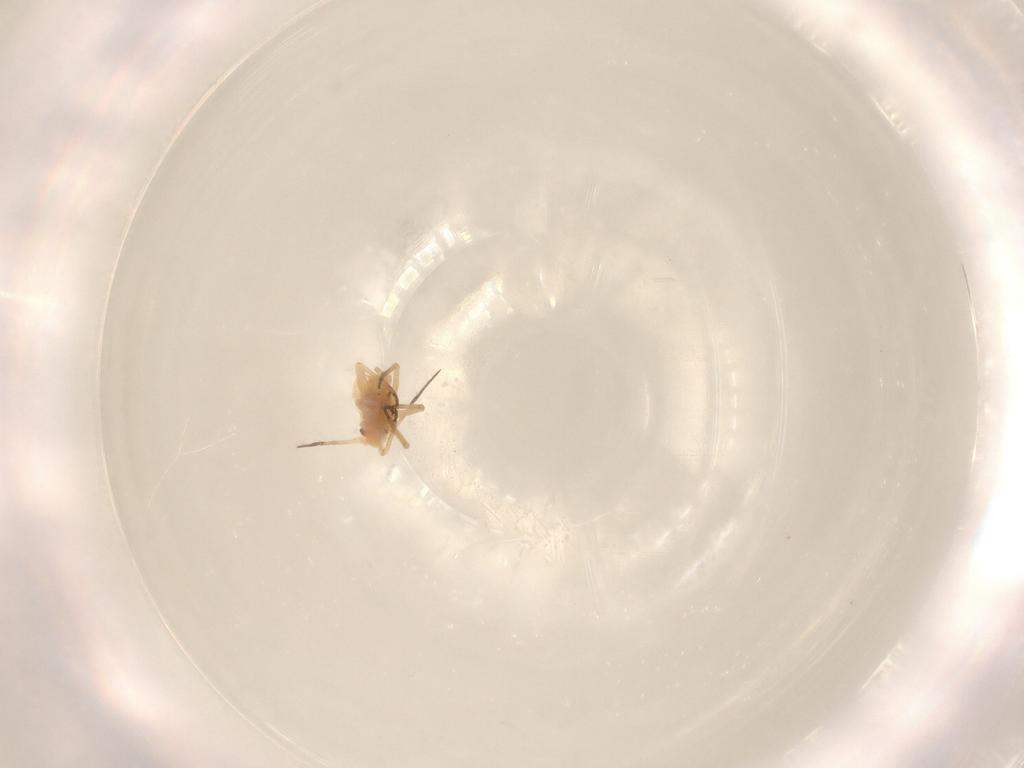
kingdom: Animalia
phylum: Arthropoda
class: Insecta
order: Hemiptera
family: Aphididae
